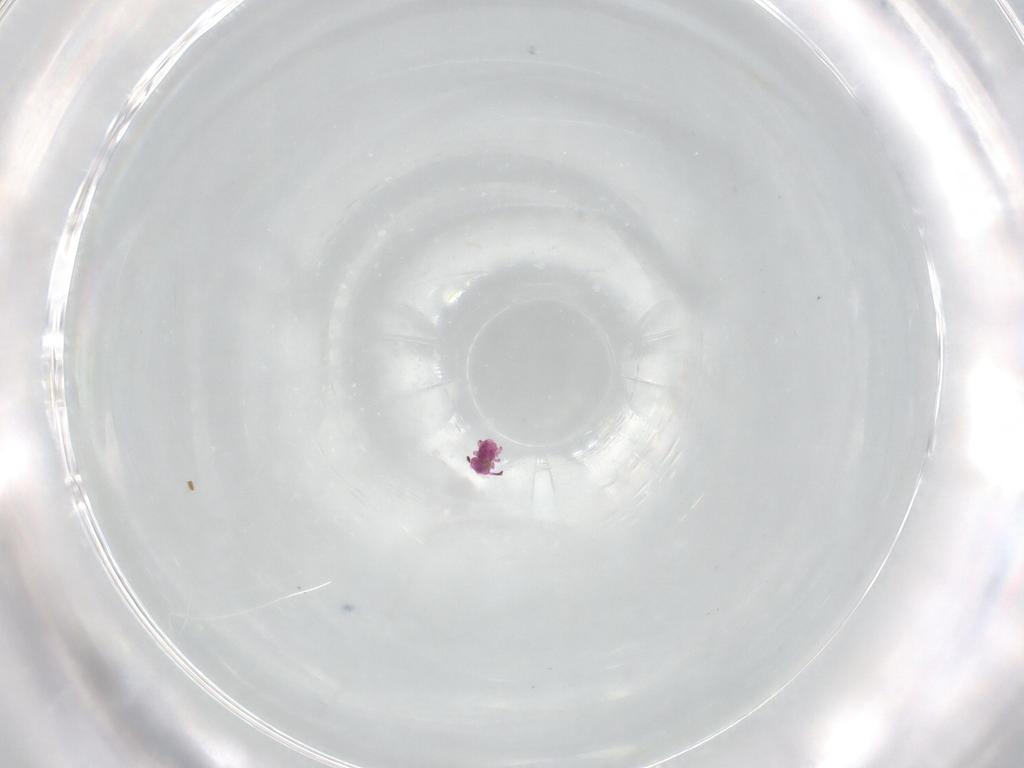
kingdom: Animalia
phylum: Arthropoda
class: Collembola
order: Symphypleona
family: Sminthurididae
